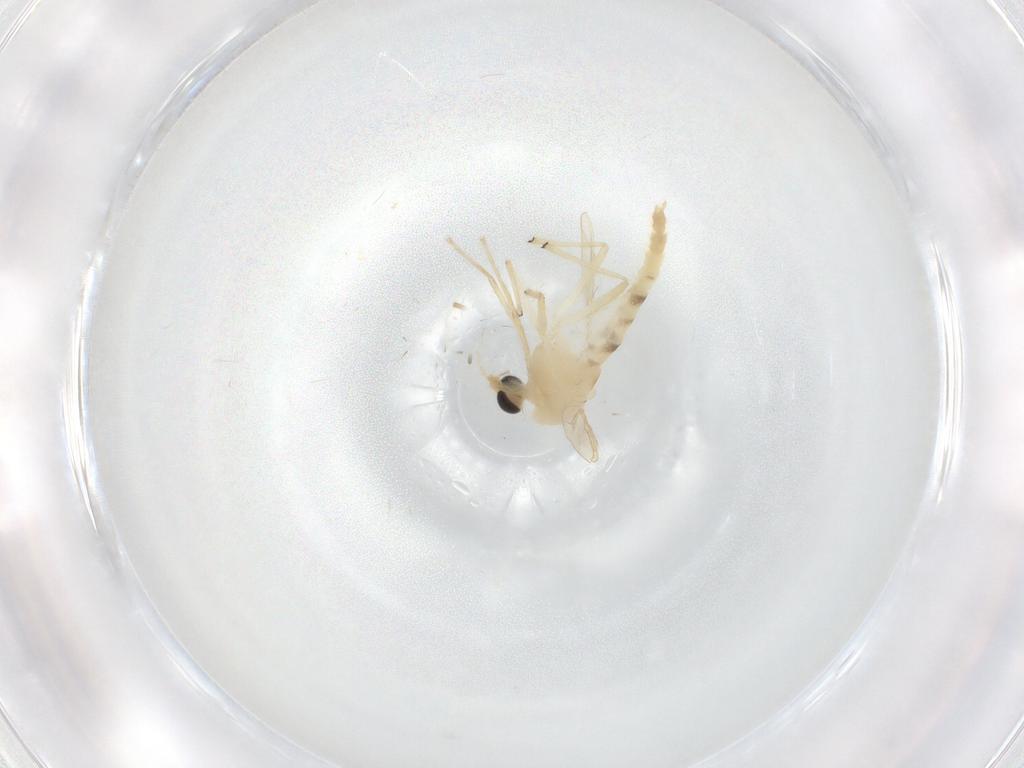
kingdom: Animalia
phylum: Arthropoda
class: Insecta
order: Diptera
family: Chironomidae
